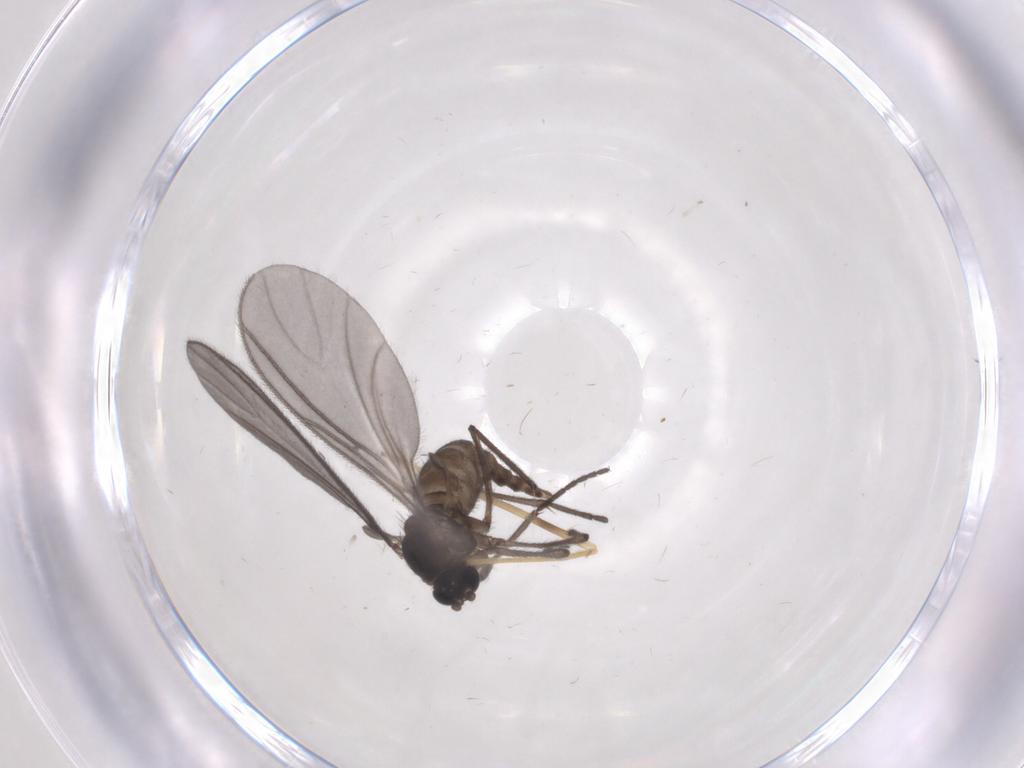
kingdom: Animalia
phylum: Arthropoda
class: Insecta
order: Diptera
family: Sciaridae
